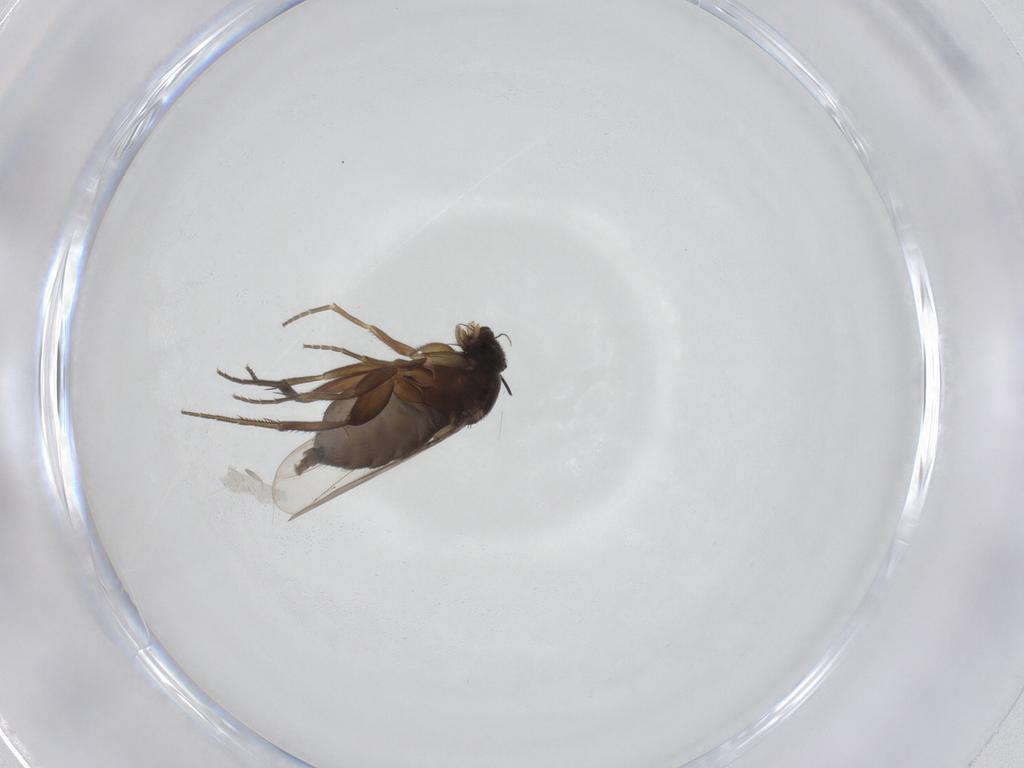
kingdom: Animalia
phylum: Arthropoda
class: Insecta
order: Diptera
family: Phoridae
